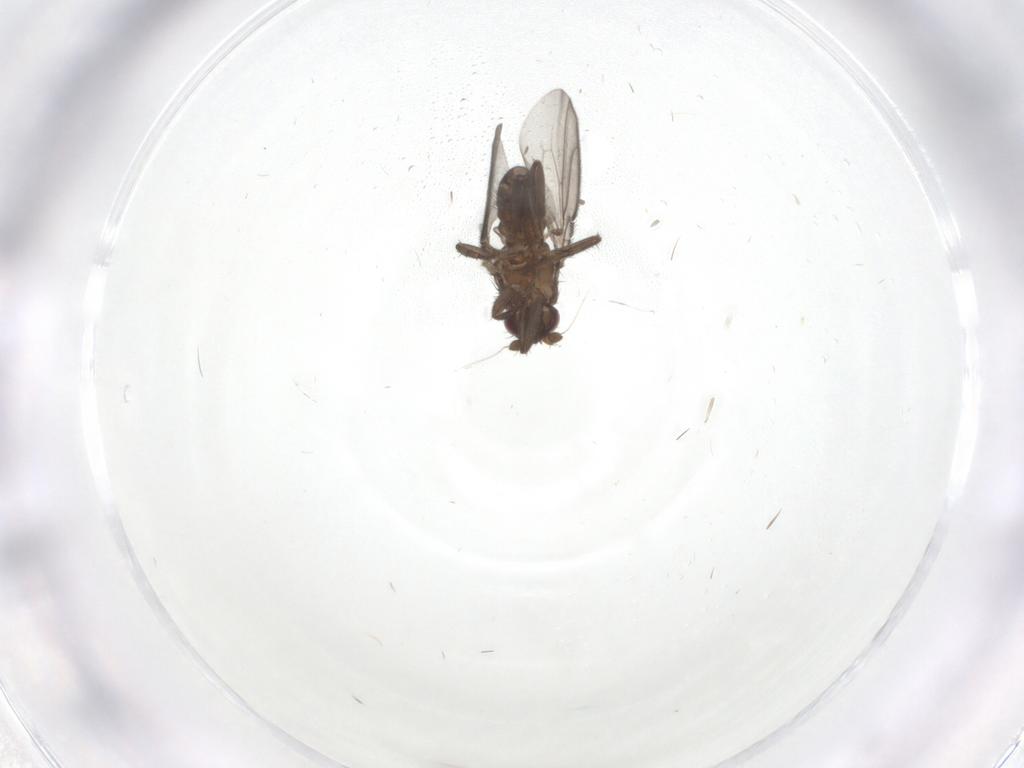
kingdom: Animalia
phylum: Arthropoda
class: Insecta
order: Diptera
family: Sphaeroceridae
